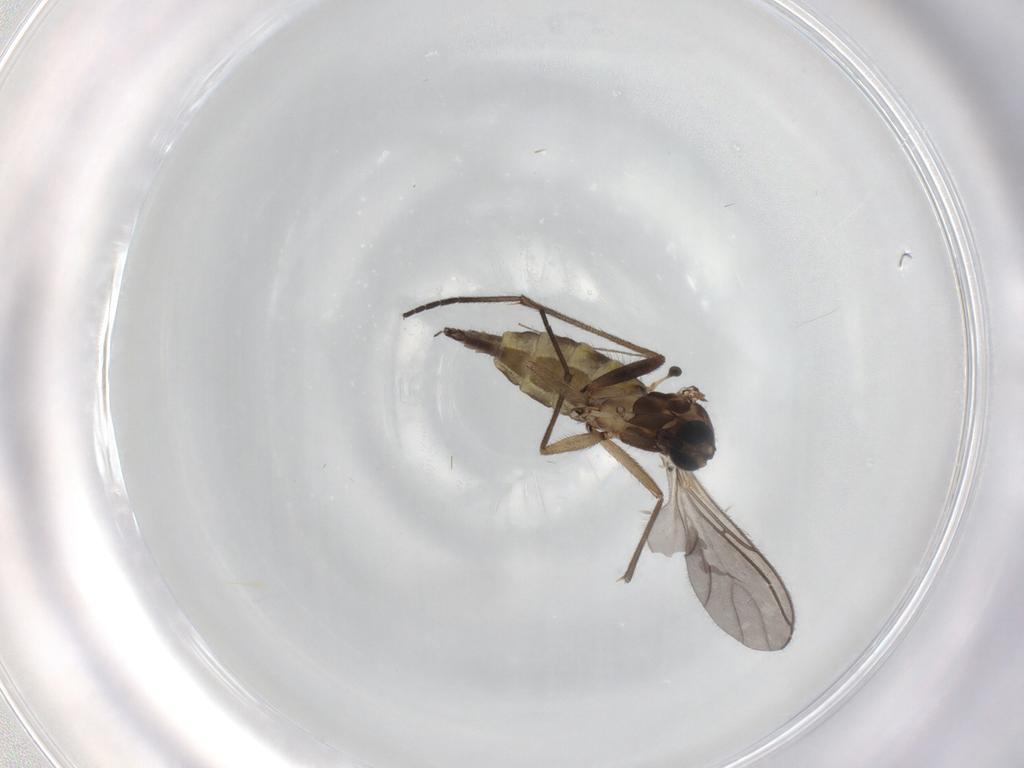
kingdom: Animalia
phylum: Arthropoda
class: Insecta
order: Diptera
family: Sciaridae
